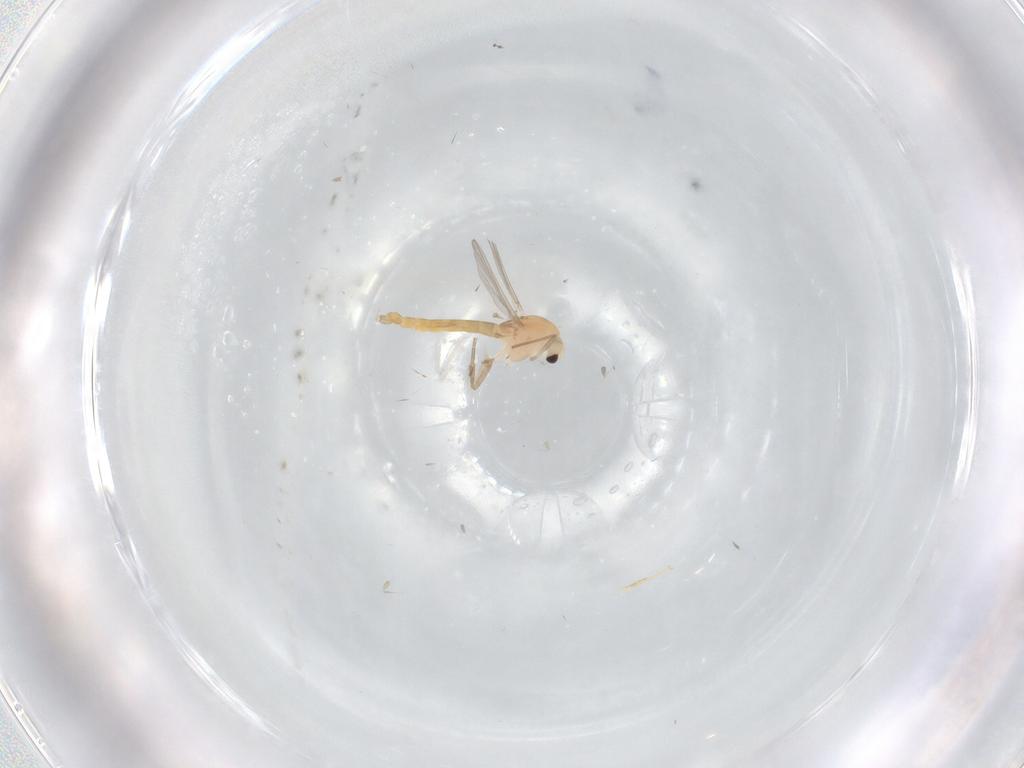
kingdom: Animalia
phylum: Arthropoda
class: Insecta
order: Diptera
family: Chironomidae
